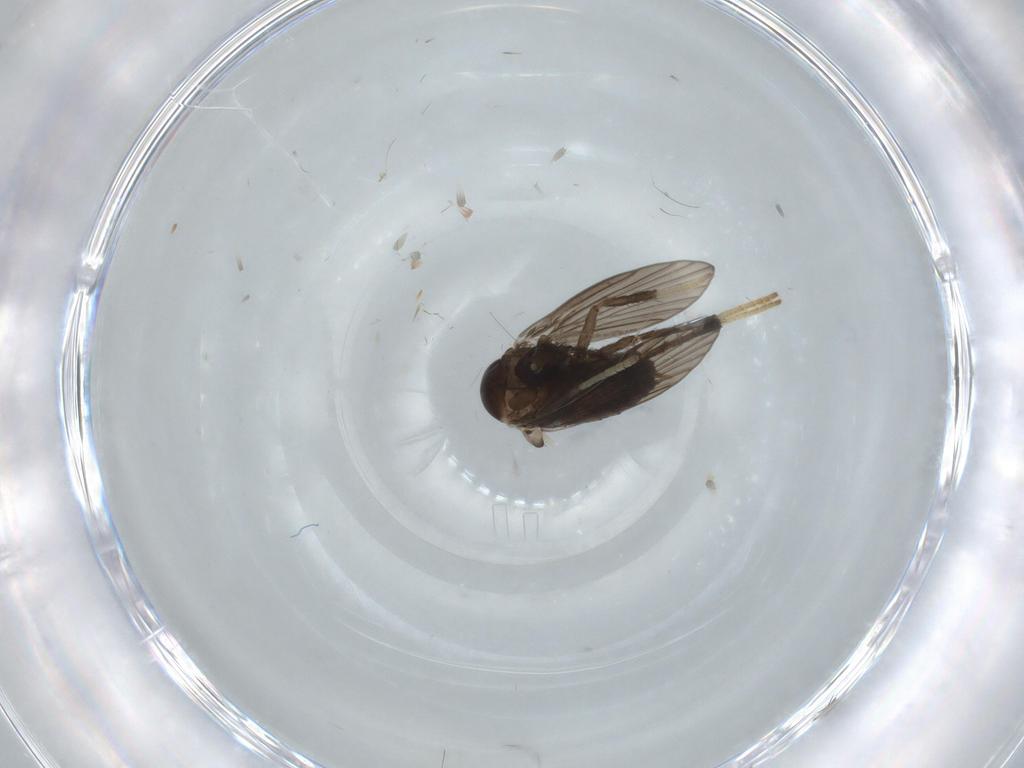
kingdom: Animalia
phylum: Arthropoda
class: Insecta
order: Diptera
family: Psychodidae
